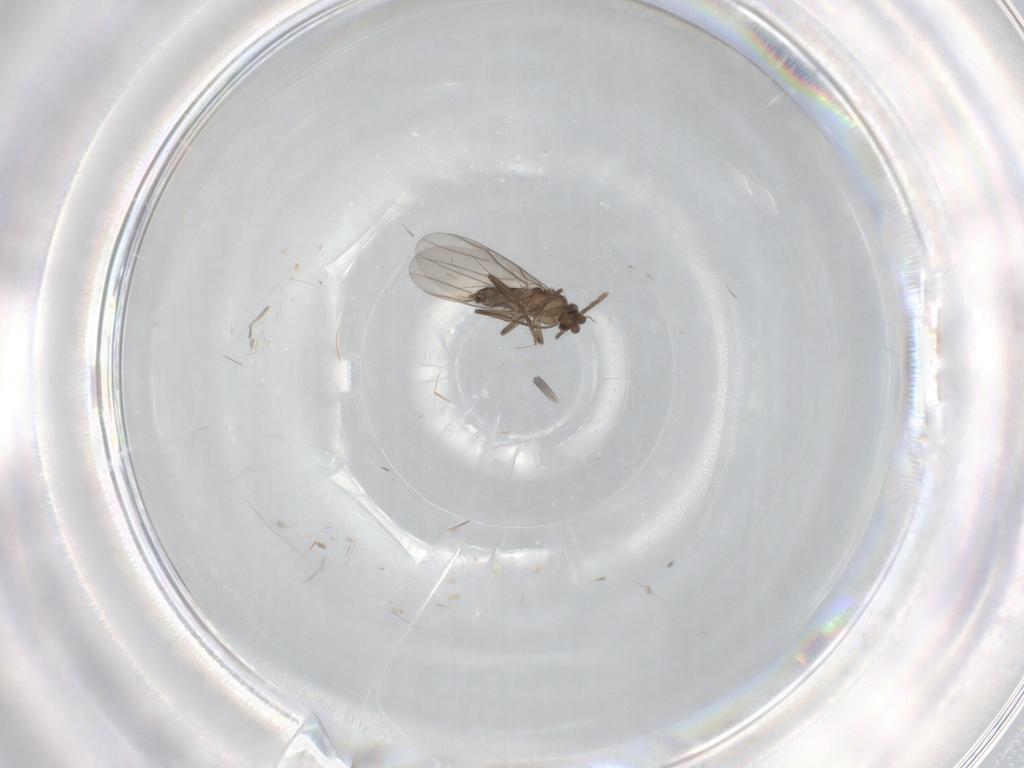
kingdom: Animalia
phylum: Arthropoda
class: Insecta
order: Diptera
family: Sciaridae
